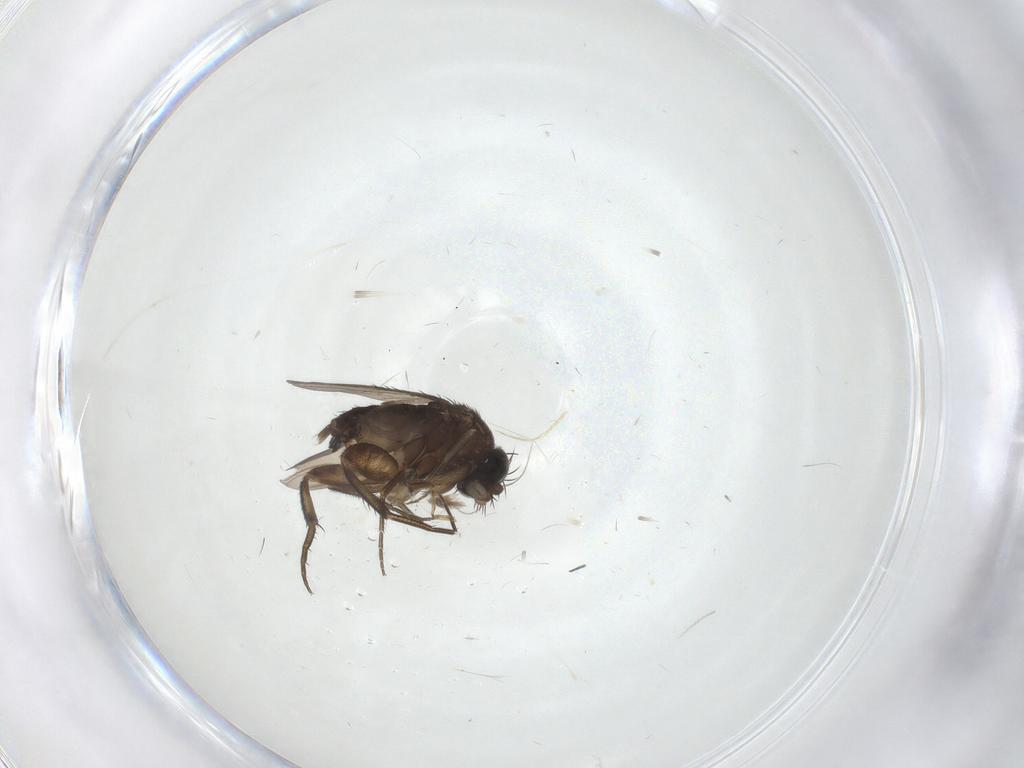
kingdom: Animalia
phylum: Arthropoda
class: Insecta
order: Diptera
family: Phoridae
